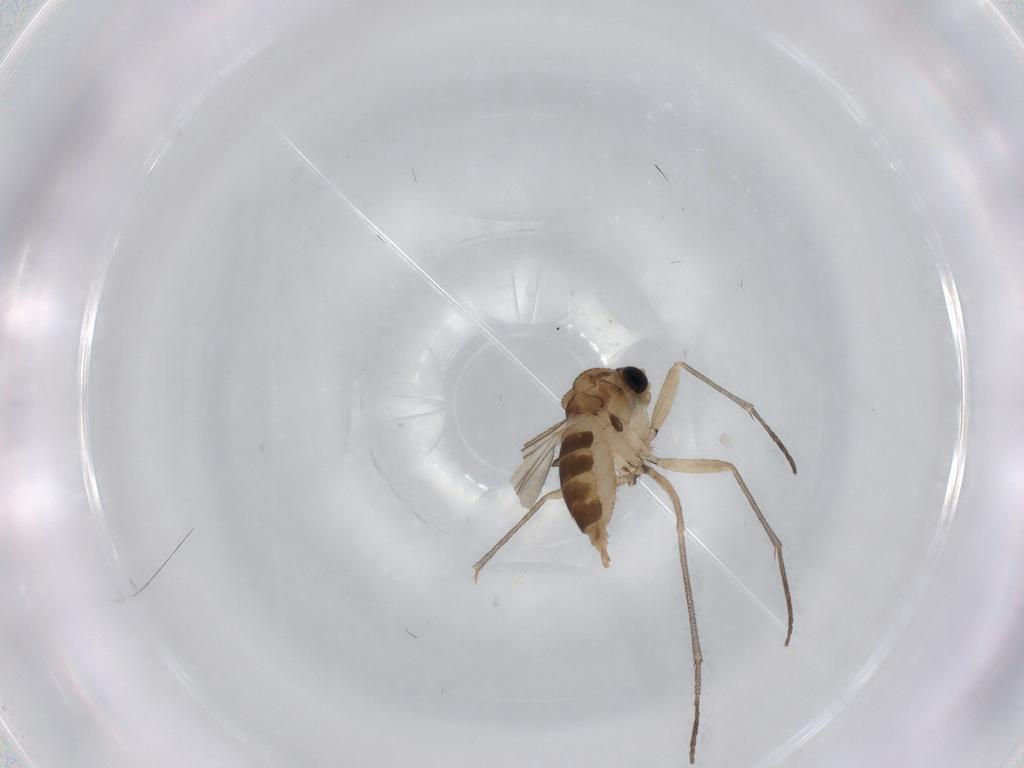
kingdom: Animalia
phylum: Arthropoda
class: Insecta
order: Diptera
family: Sciaridae
